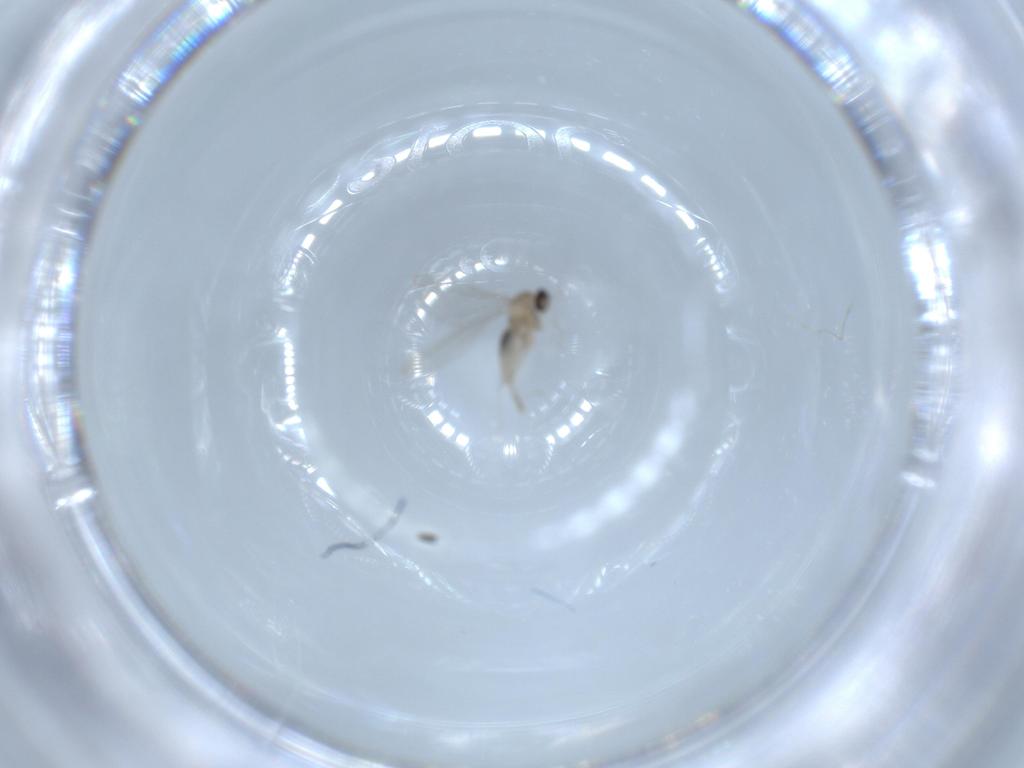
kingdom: Animalia
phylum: Arthropoda
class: Insecta
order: Diptera
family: Cecidomyiidae
